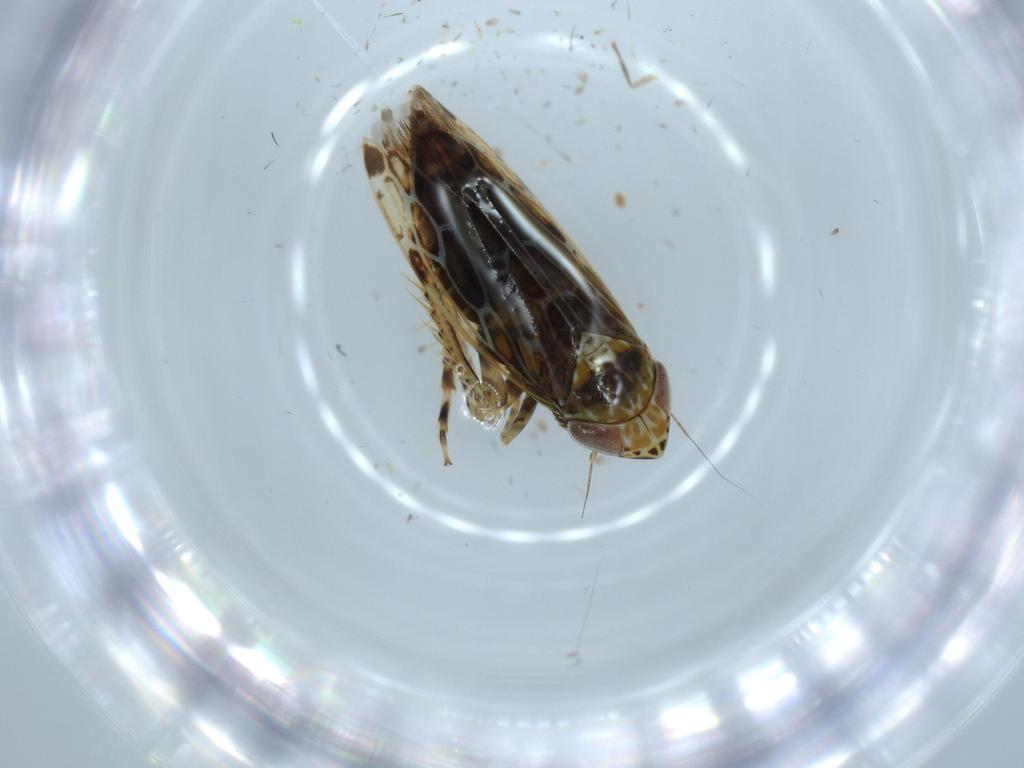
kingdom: Animalia
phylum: Arthropoda
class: Insecta
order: Hemiptera
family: Cicadellidae
